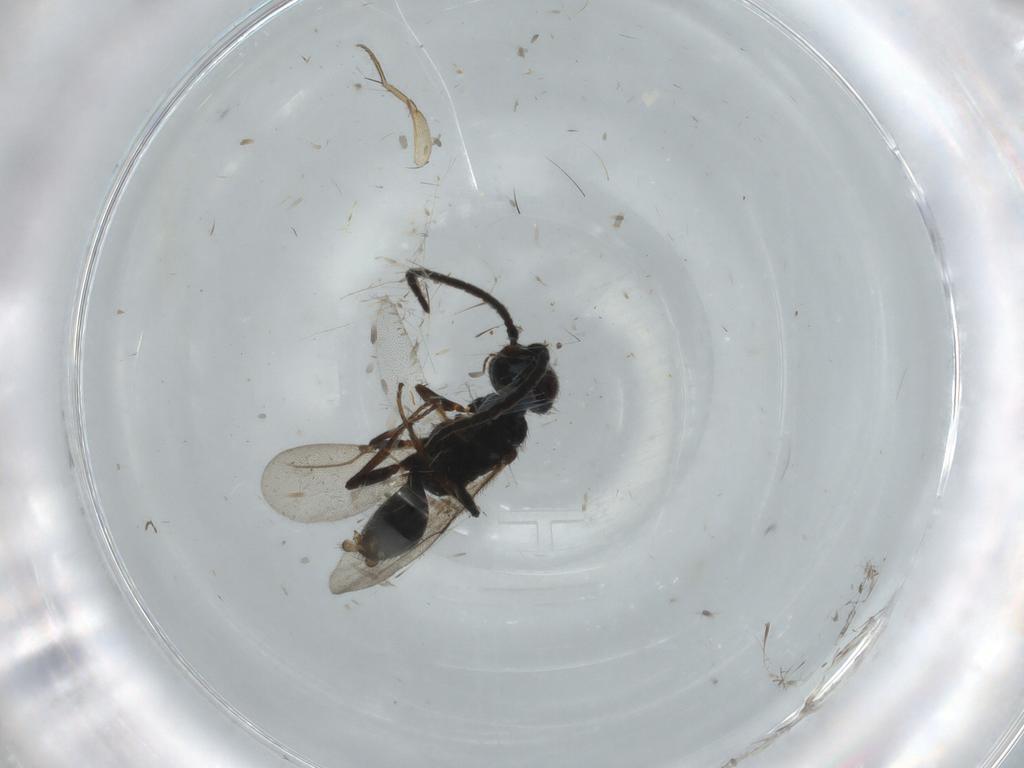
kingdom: Animalia
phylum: Arthropoda
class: Insecta
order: Hymenoptera
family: Bethylidae
